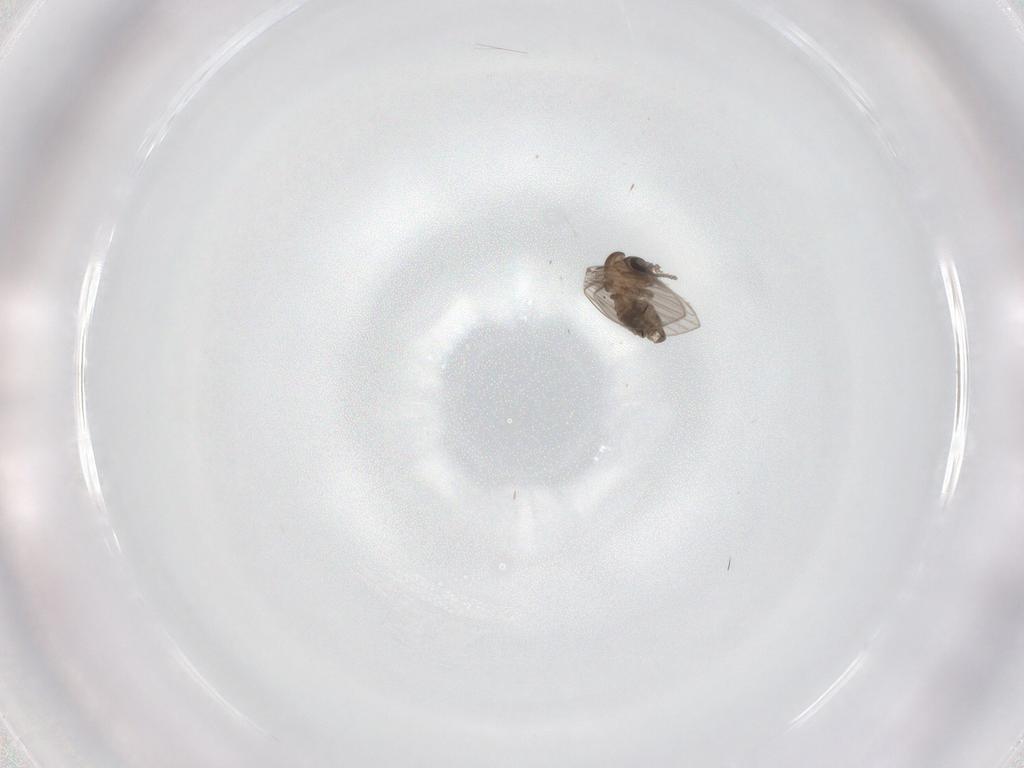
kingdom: Animalia
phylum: Arthropoda
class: Insecta
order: Diptera
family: Psychodidae
